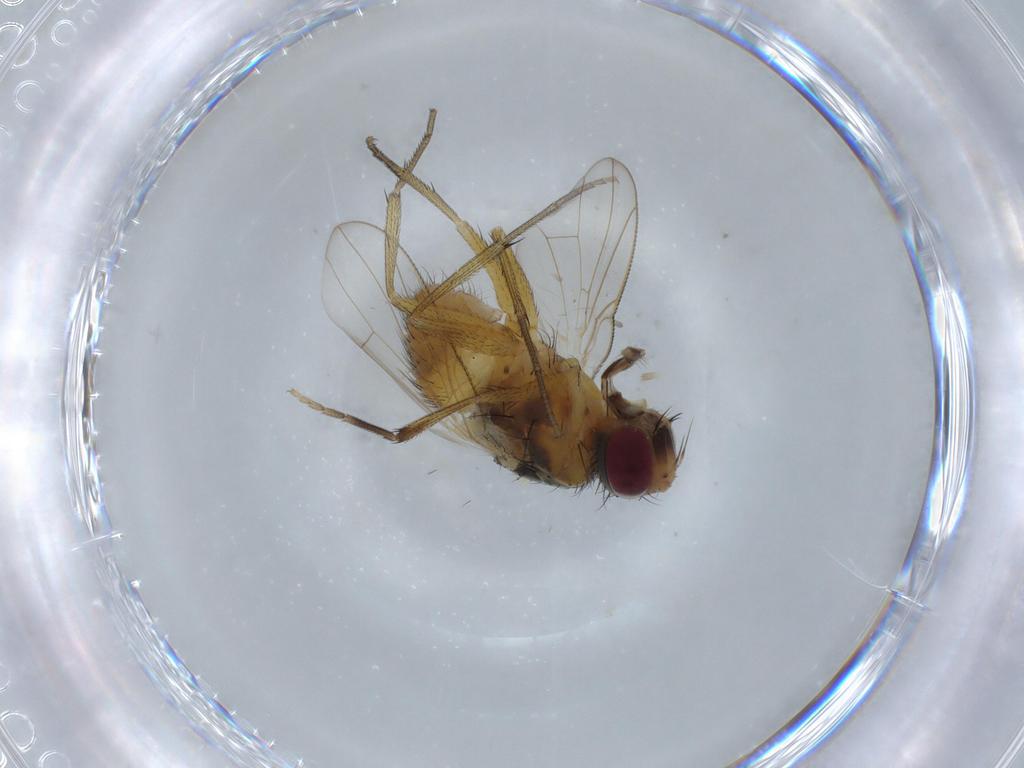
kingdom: Animalia
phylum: Arthropoda
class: Insecta
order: Diptera
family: Muscidae
